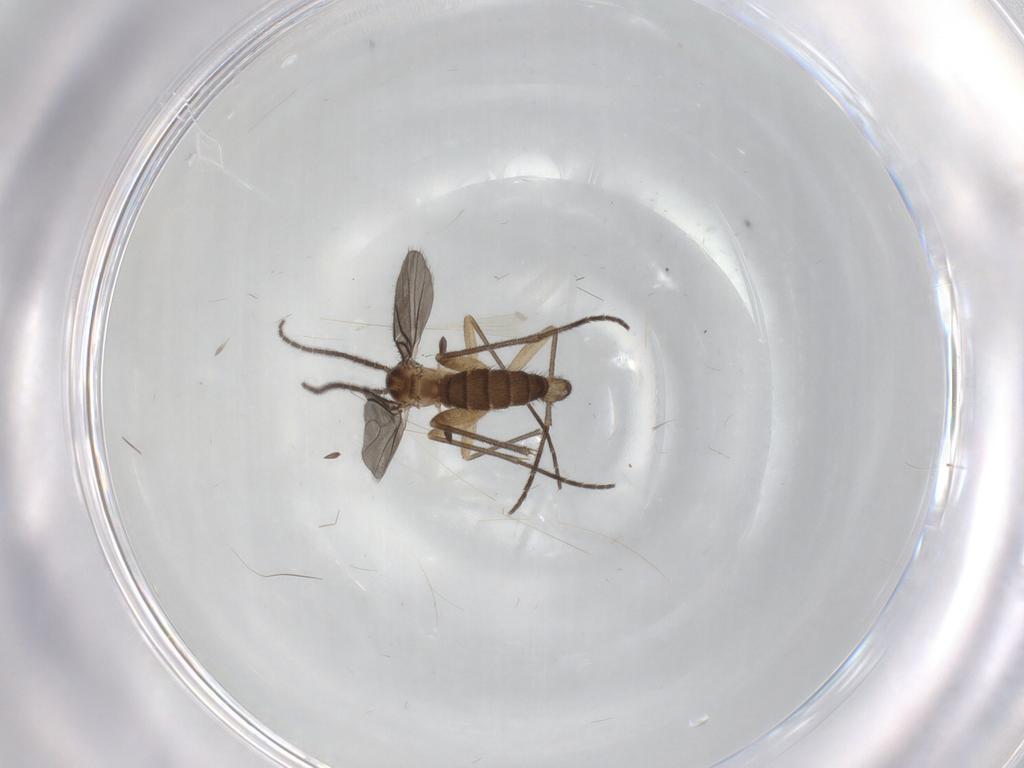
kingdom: Animalia
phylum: Arthropoda
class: Insecta
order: Diptera
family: Sciaridae
